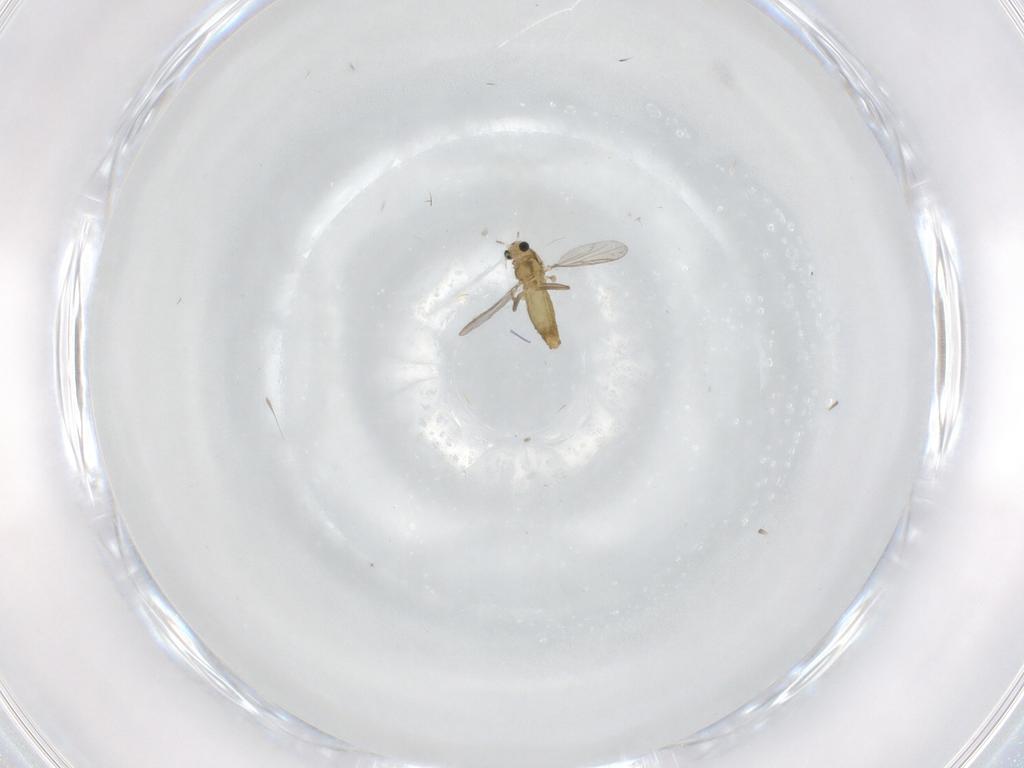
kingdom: Animalia
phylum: Arthropoda
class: Insecta
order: Diptera
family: Chironomidae
